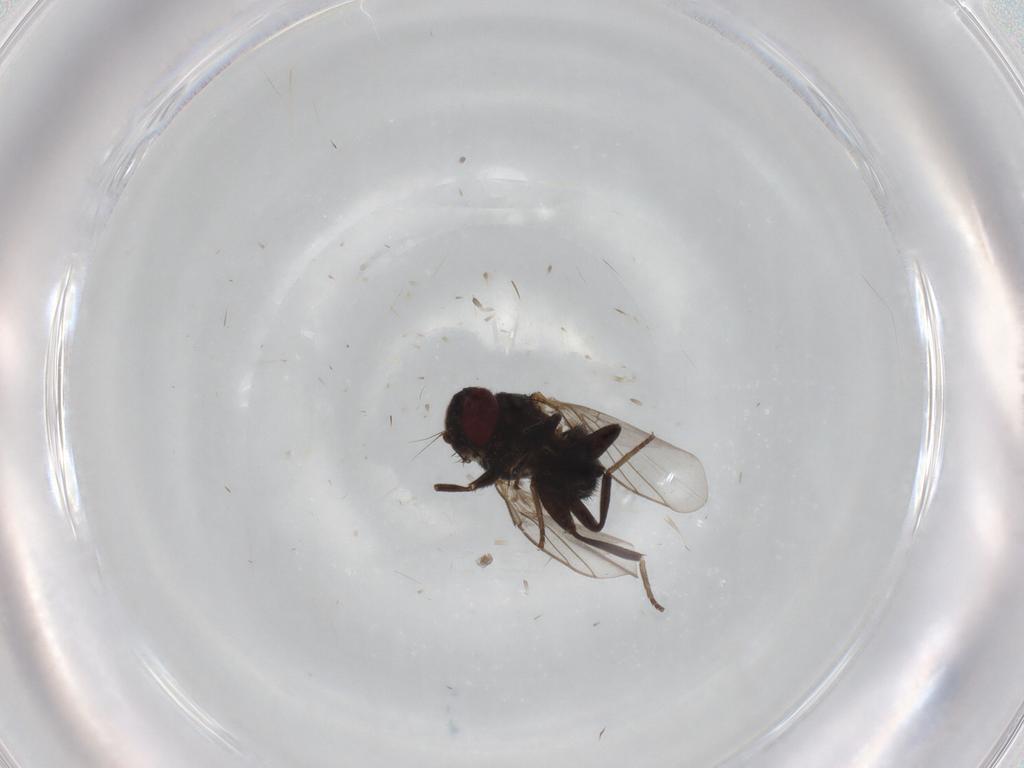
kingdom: Animalia
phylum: Arthropoda
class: Insecta
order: Diptera
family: Chironomidae
